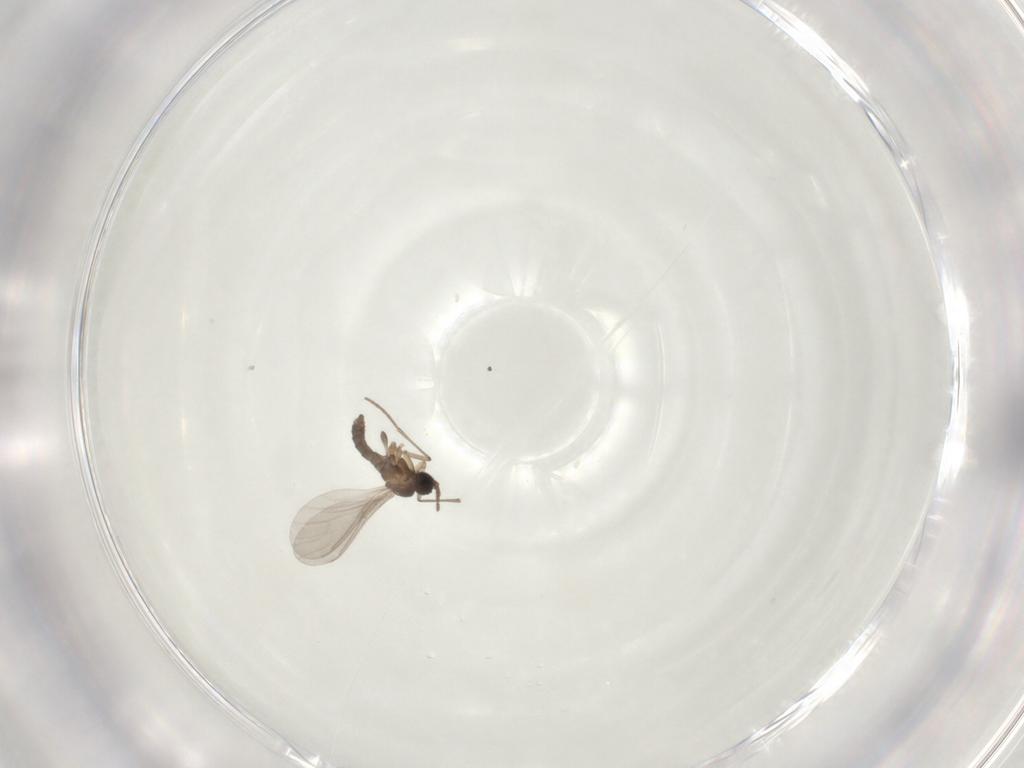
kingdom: Animalia
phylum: Arthropoda
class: Insecta
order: Diptera
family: Sciaridae
